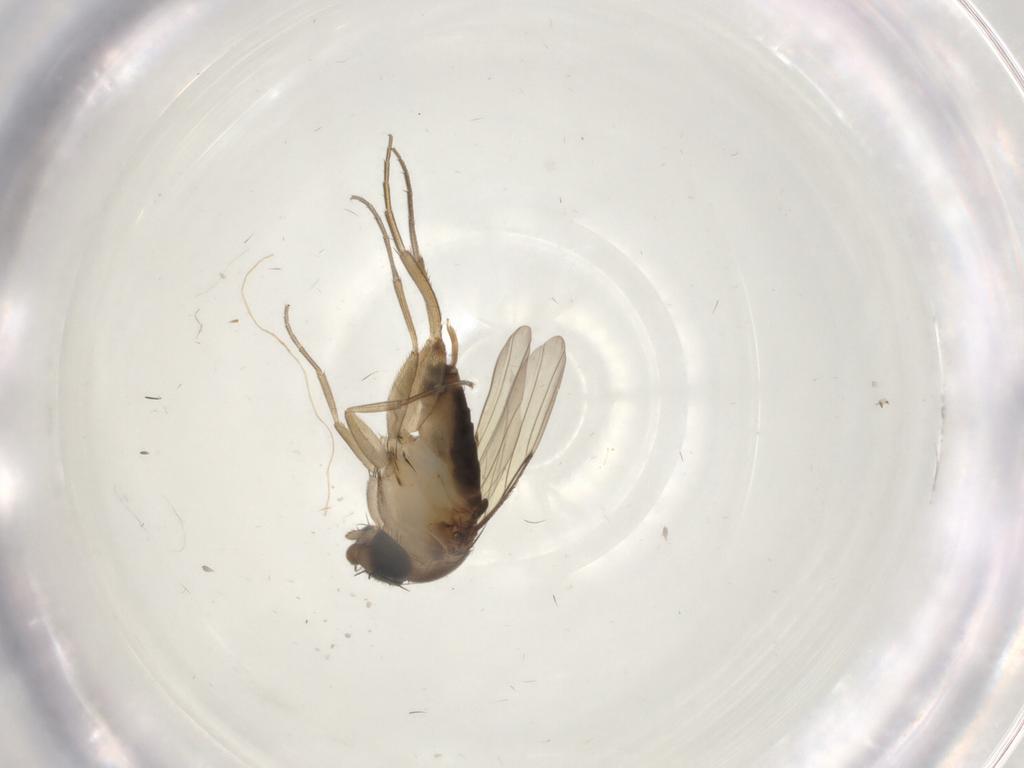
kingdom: Animalia
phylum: Arthropoda
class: Insecta
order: Diptera
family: Phoridae
